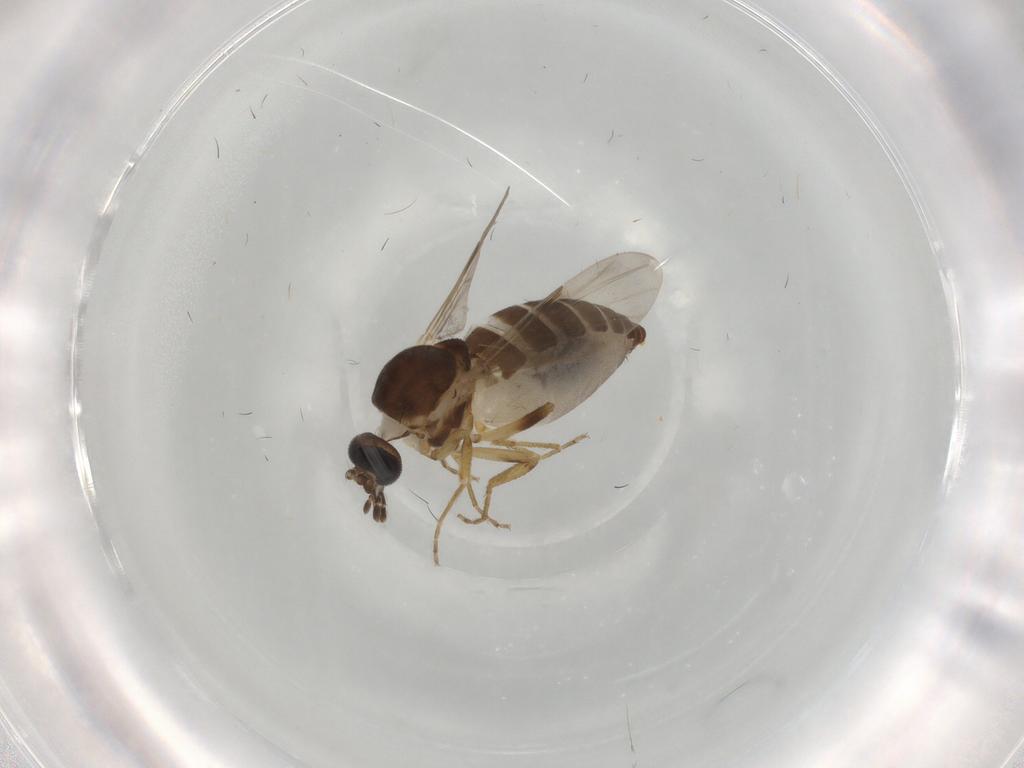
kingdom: Animalia
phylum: Arthropoda
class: Insecta
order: Diptera
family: Ceratopogonidae
